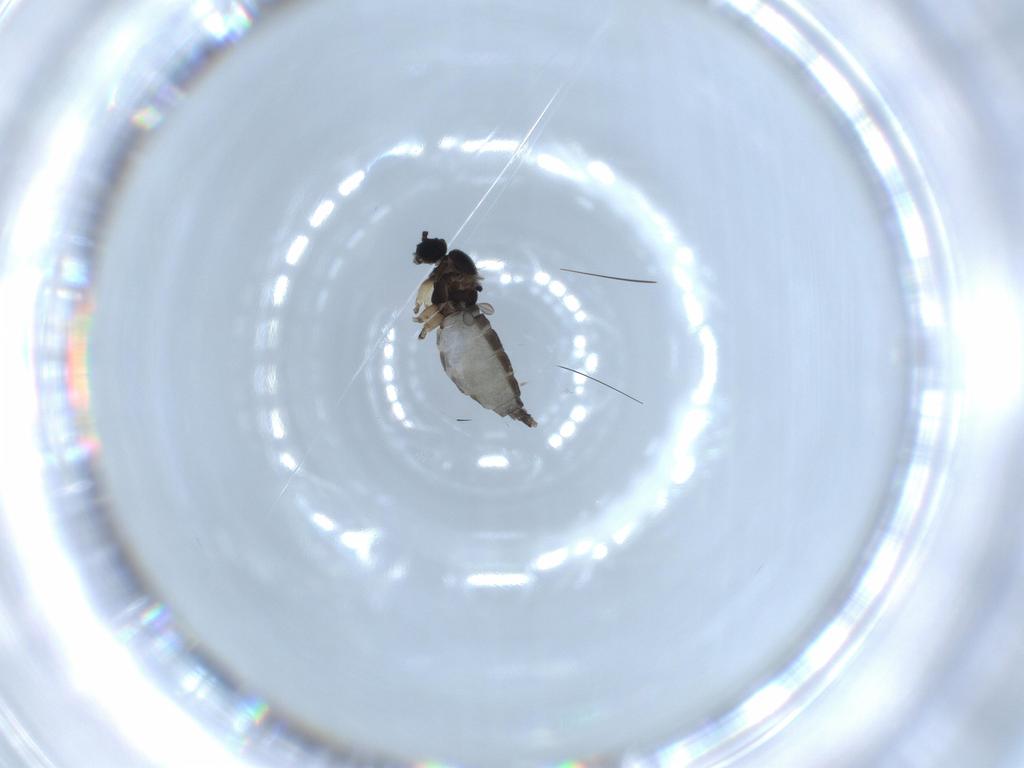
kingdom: Animalia
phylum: Arthropoda
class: Insecta
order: Diptera
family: Sciaridae
